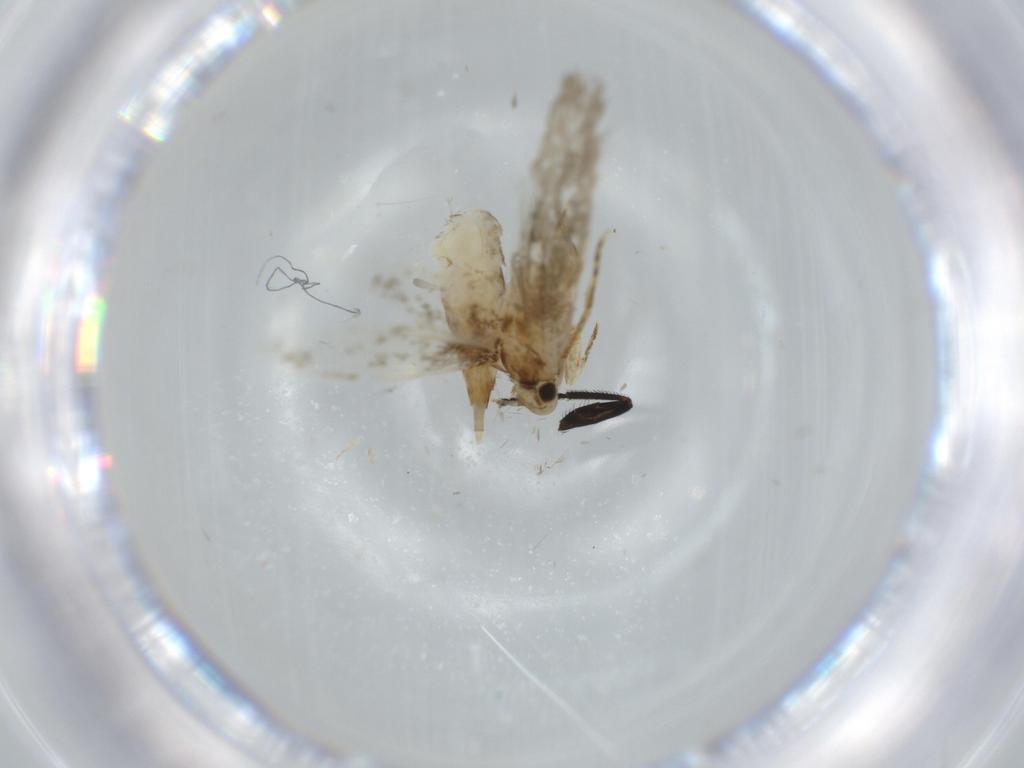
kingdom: Animalia
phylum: Arthropoda
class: Insecta
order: Lepidoptera
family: Tineidae
